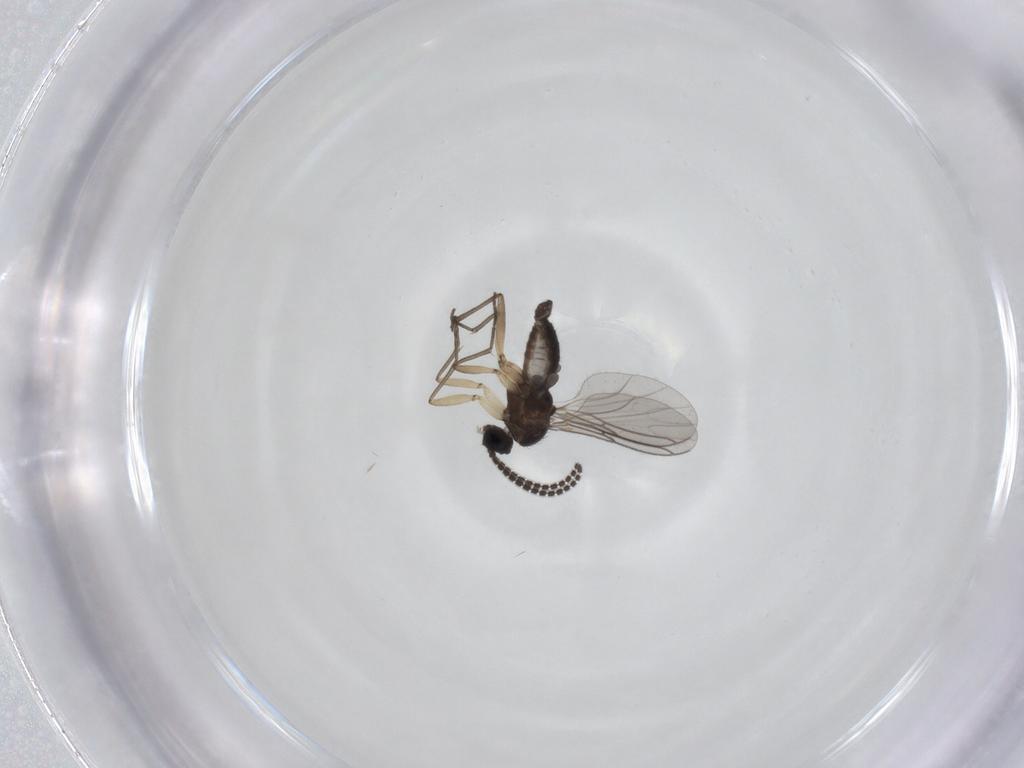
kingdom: Animalia
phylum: Arthropoda
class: Insecta
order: Diptera
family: Sciaridae
